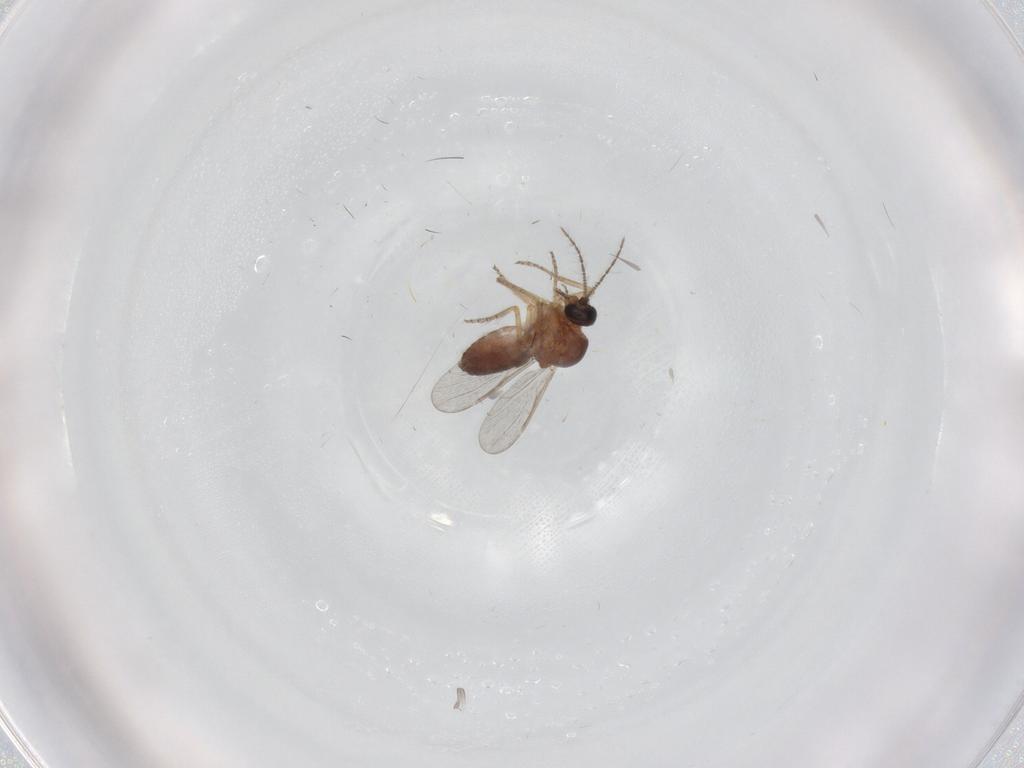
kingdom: Animalia
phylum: Arthropoda
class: Insecta
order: Diptera
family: Ceratopogonidae
